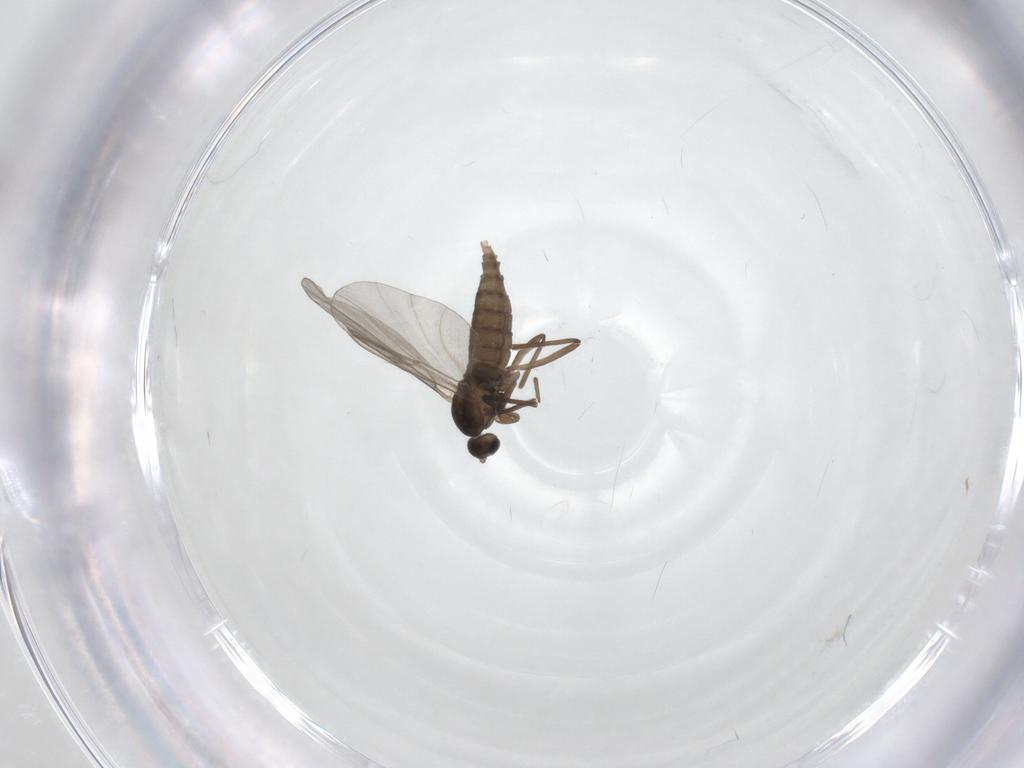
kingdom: Animalia
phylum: Arthropoda
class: Insecta
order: Diptera
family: Cecidomyiidae
